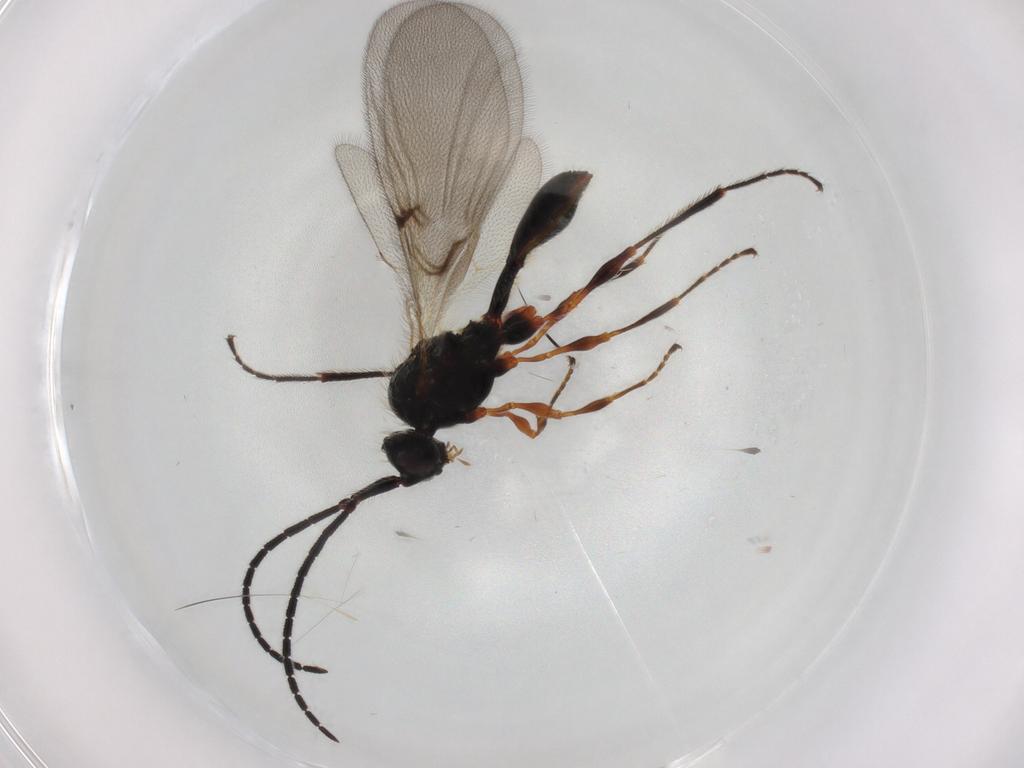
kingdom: Animalia
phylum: Arthropoda
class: Insecta
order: Hymenoptera
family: Diapriidae
